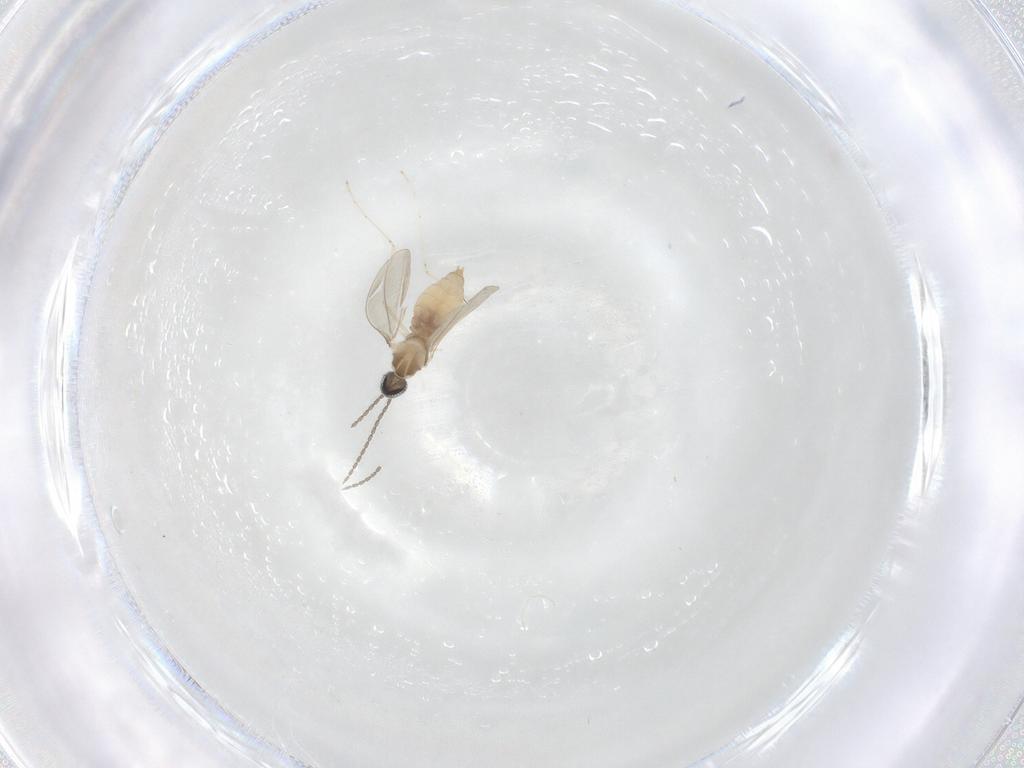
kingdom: Animalia
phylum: Arthropoda
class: Insecta
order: Diptera
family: Cecidomyiidae
